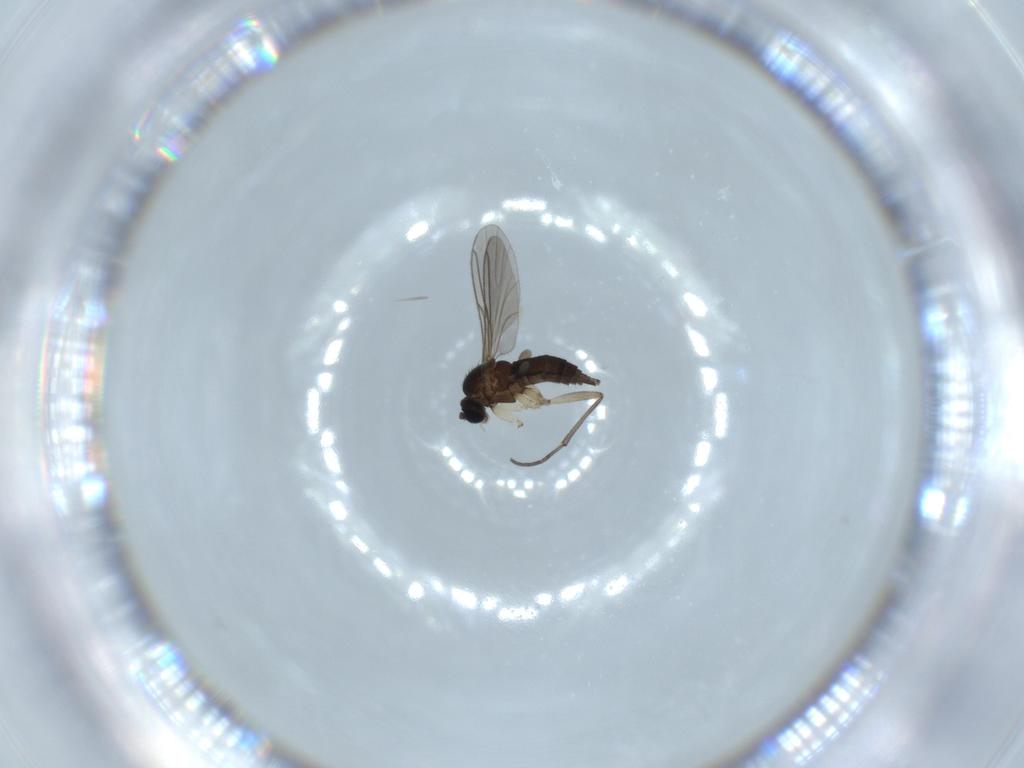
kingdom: Animalia
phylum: Arthropoda
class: Insecta
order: Diptera
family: Sciaridae
